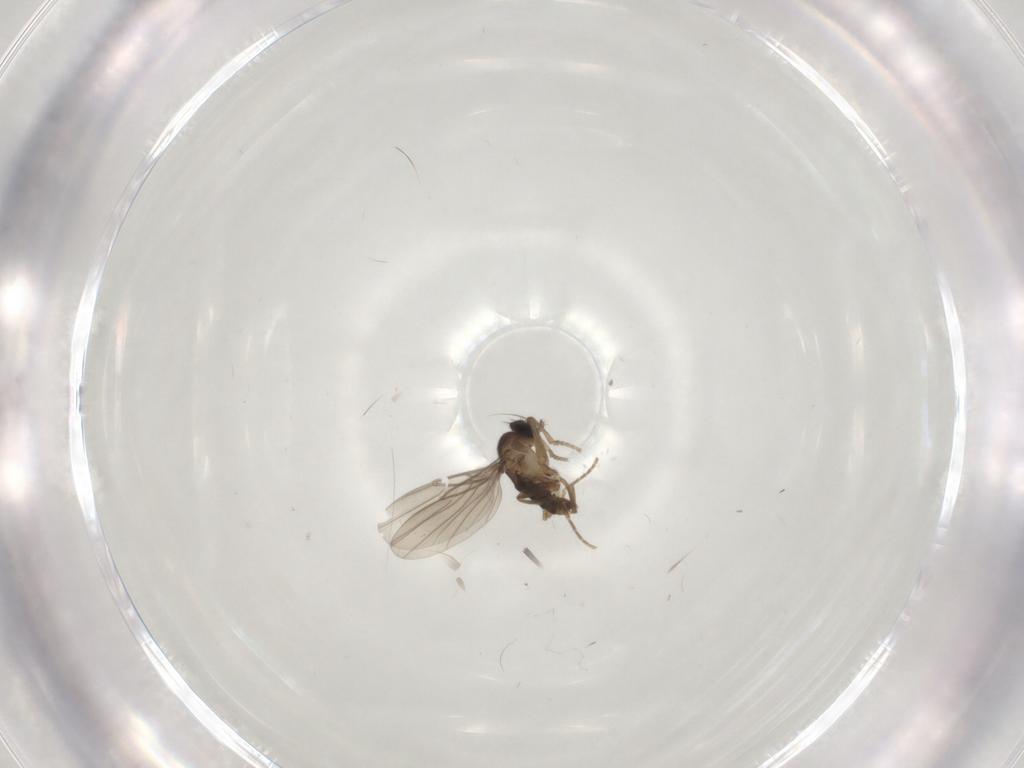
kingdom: Animalia
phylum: Arthropoda
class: Insecta
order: Diptera
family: Phoridae
